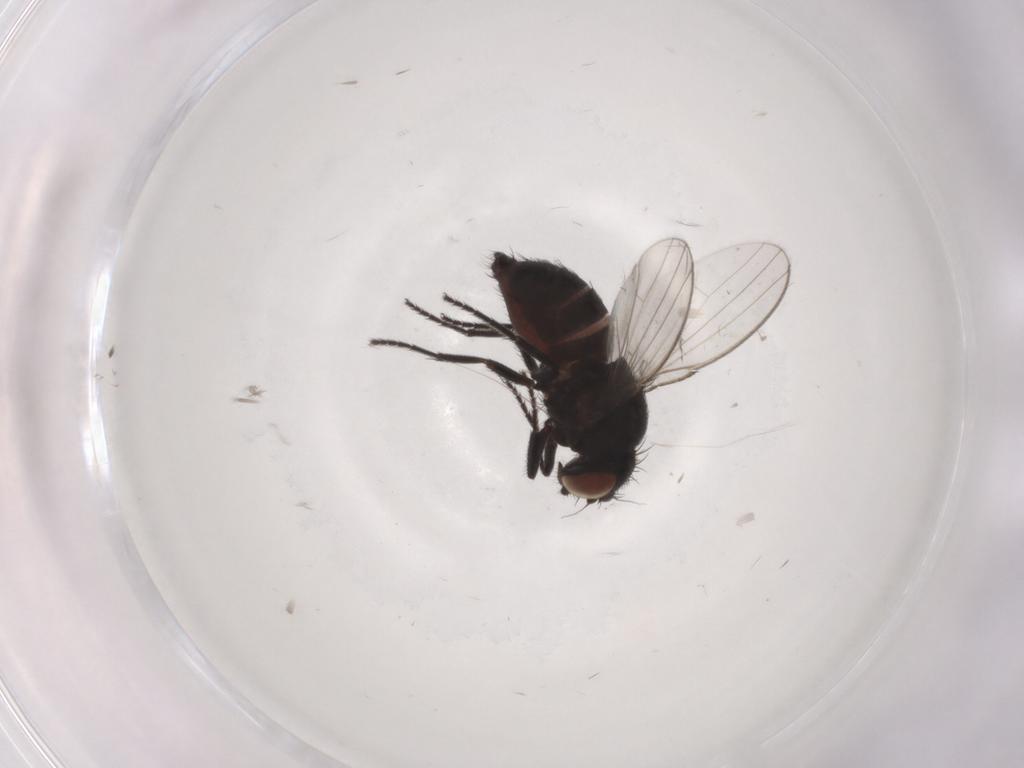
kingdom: Animalia
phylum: Arthropoda
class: Insecta
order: Diptera
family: Milichiidae
